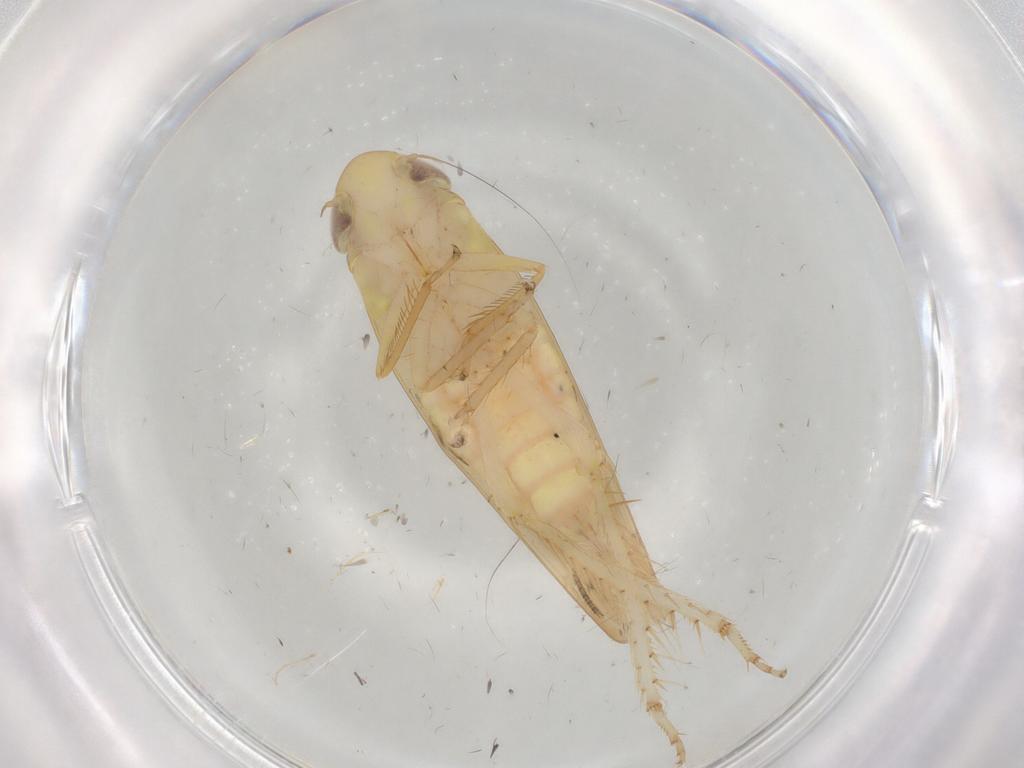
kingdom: Animalia
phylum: Arthropoda
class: Insecta
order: Hemiptera
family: Cicadellidae
